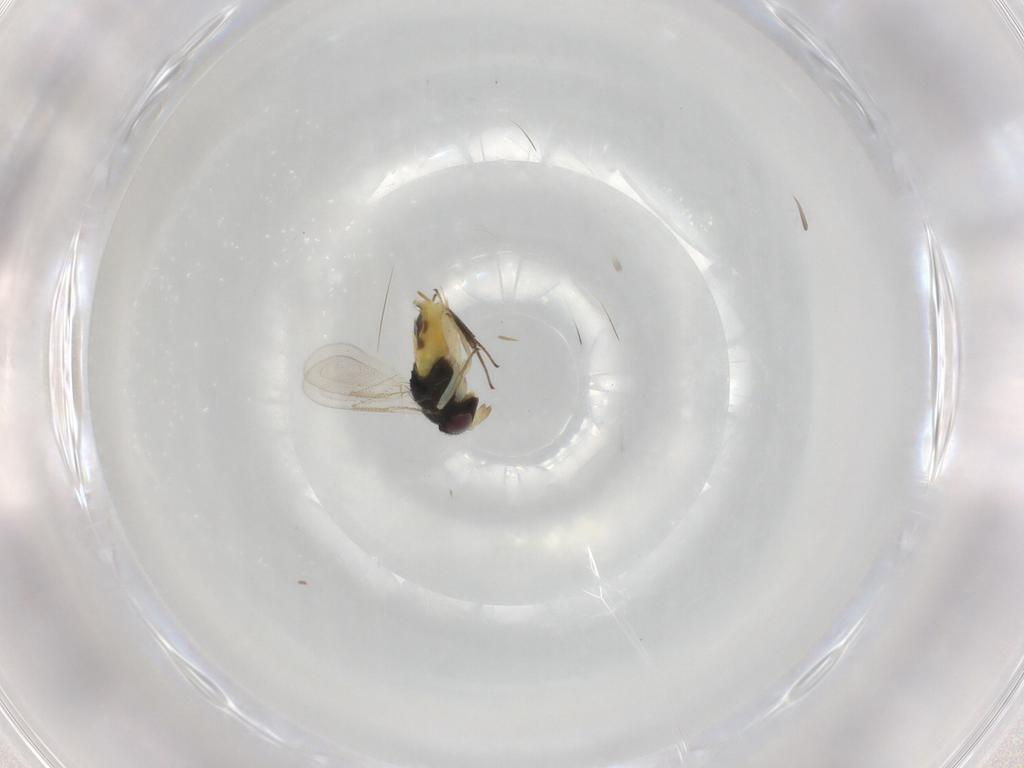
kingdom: Animalia
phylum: Arthropoda
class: Insecta
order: Hymenoptera
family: Aphelinidae
